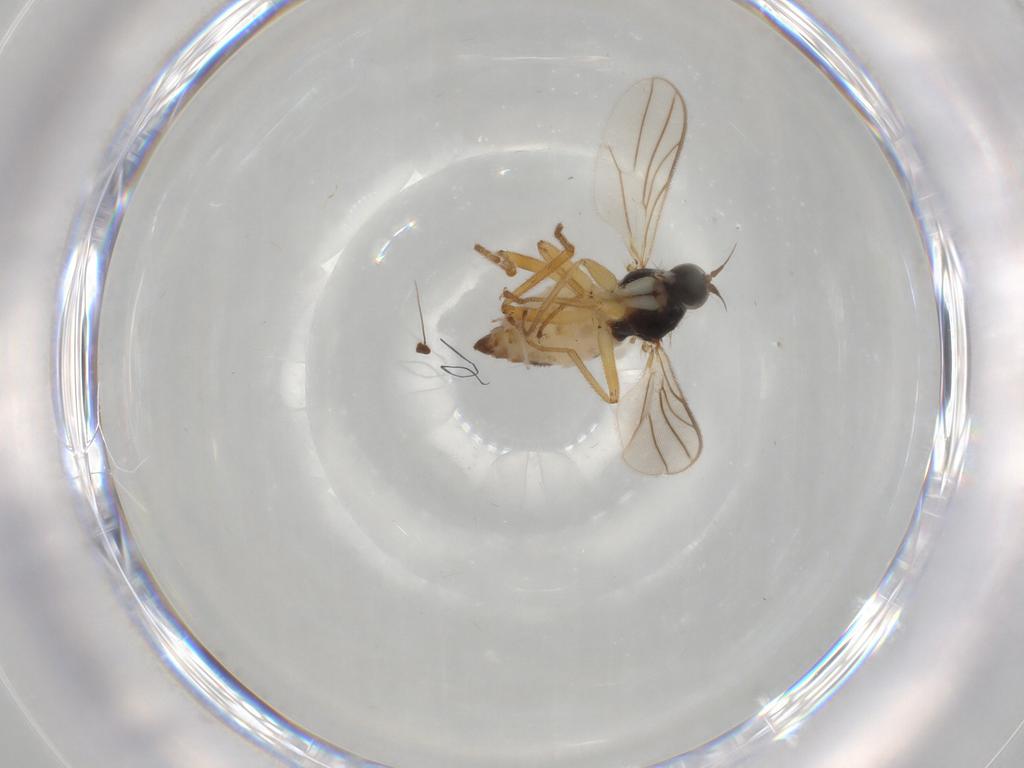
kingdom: Animalia
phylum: Arthropoda
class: Insecta
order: Diptera
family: Hybotidae
